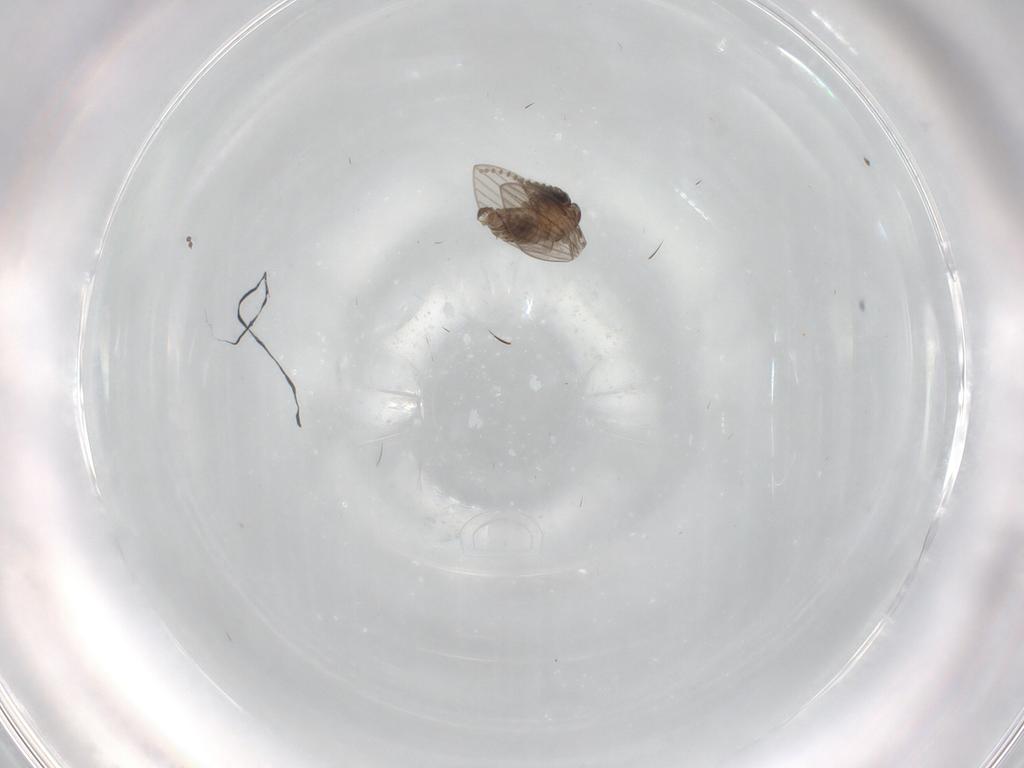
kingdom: Animalia
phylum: Arthropoda
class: Insecta
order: Diptera
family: Psychodidae
